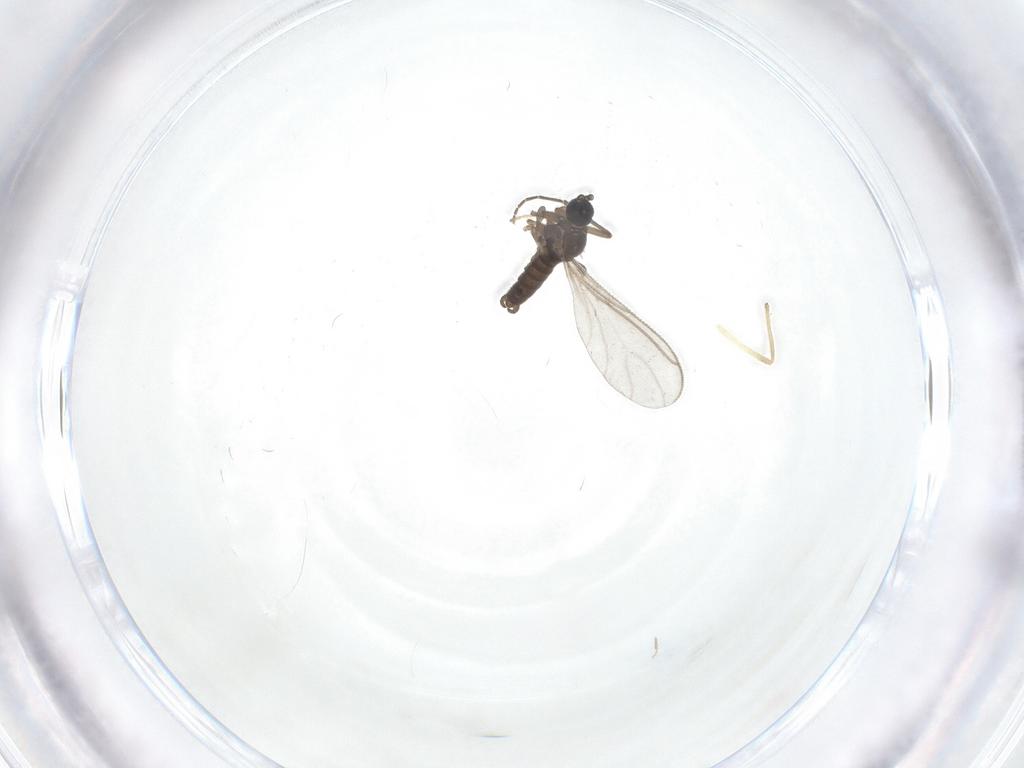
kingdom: Animalia
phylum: Arthropoda
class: Insecta
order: Diptera
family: Sciaridae
